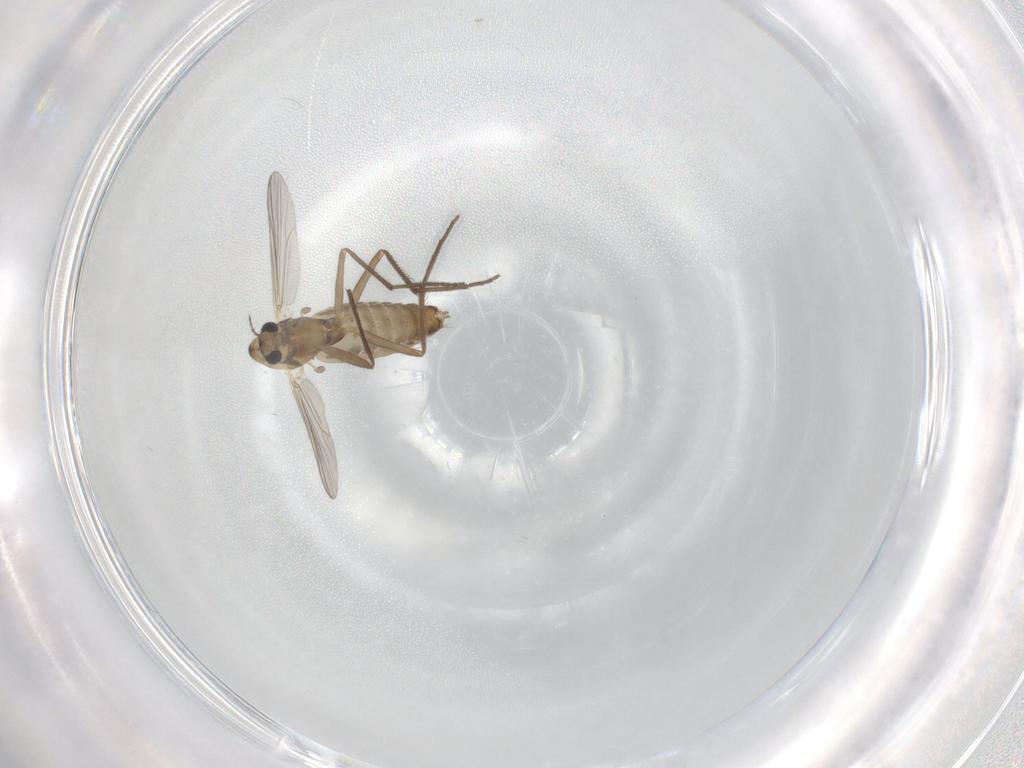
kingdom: Animalia
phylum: Arthropoda
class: Insecta
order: Diptera
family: Chironomidae
